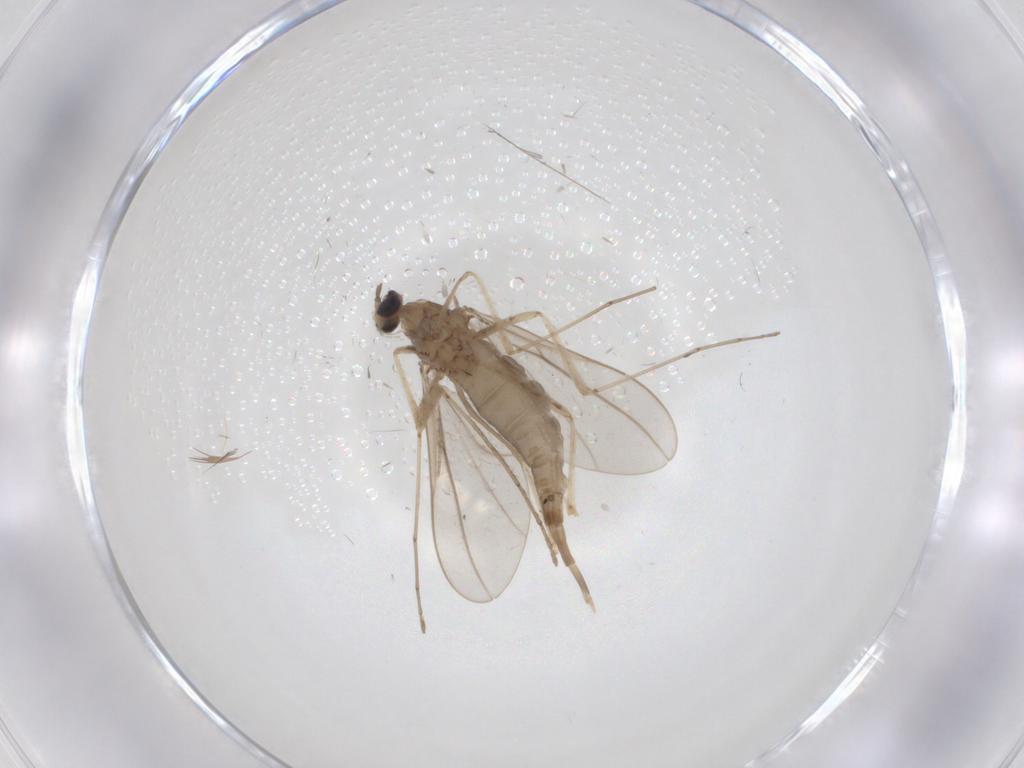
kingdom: Animalia
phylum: Arthropoda
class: Insecta
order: Diptera
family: Cecidomyiidae
